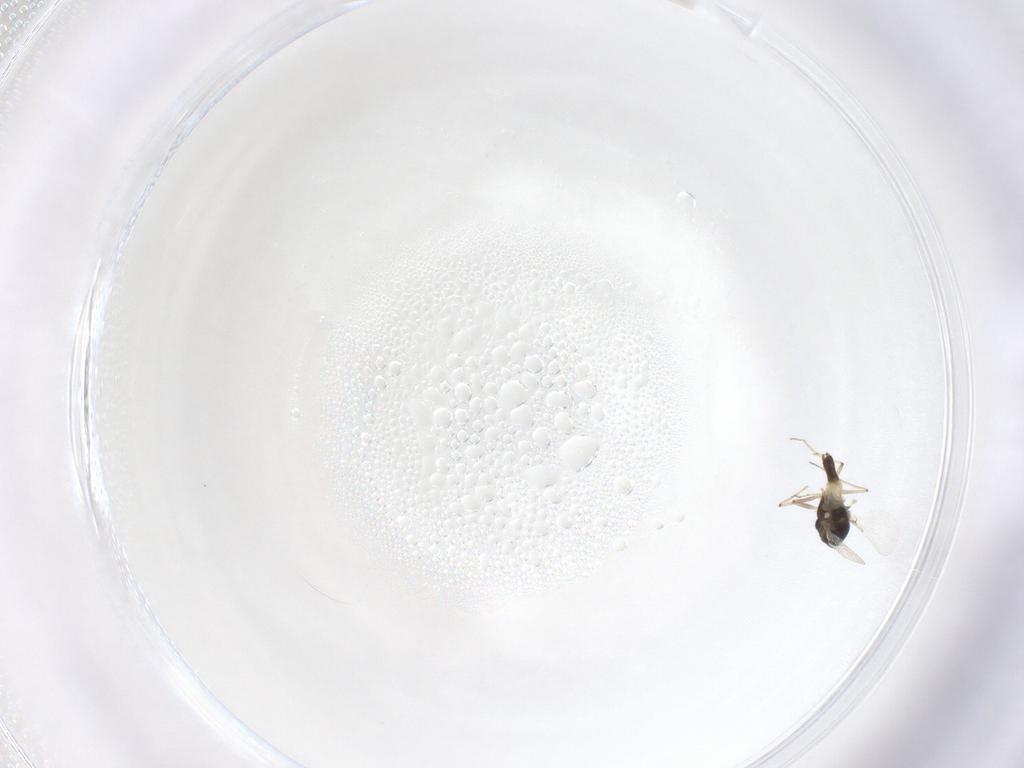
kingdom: Animalia
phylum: Arthropoda
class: Insecta
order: Diptera
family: Chironomidae
